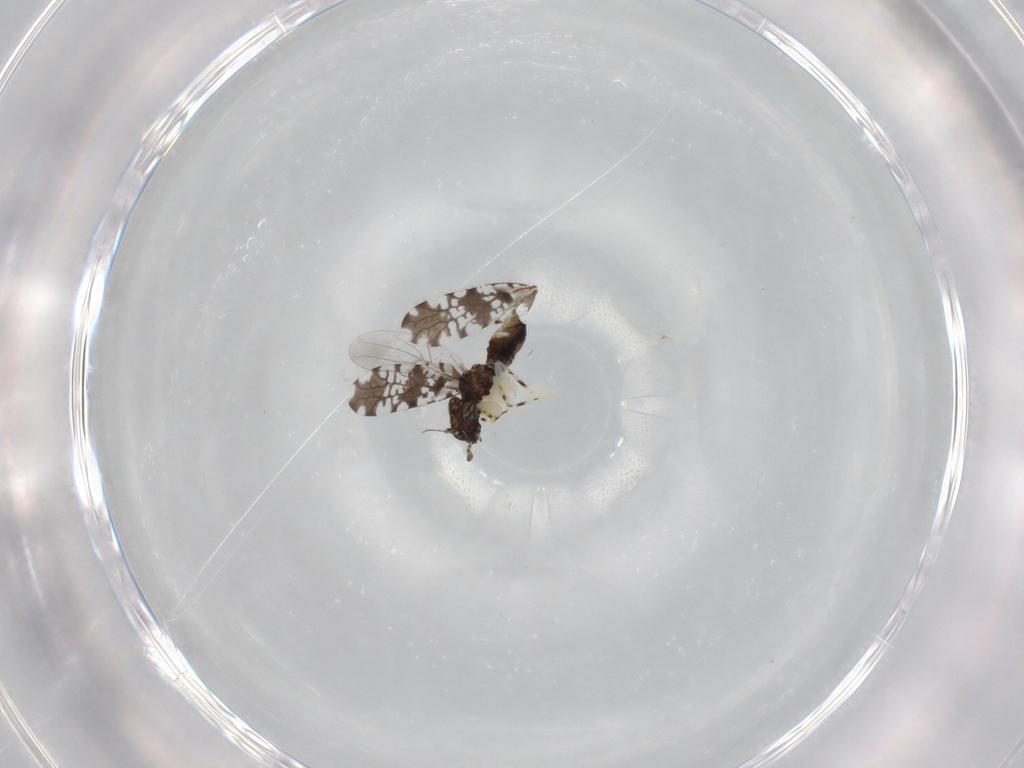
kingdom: Animalia
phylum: Arthropoda
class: Insecta
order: Psocodea
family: Psoquillidae
